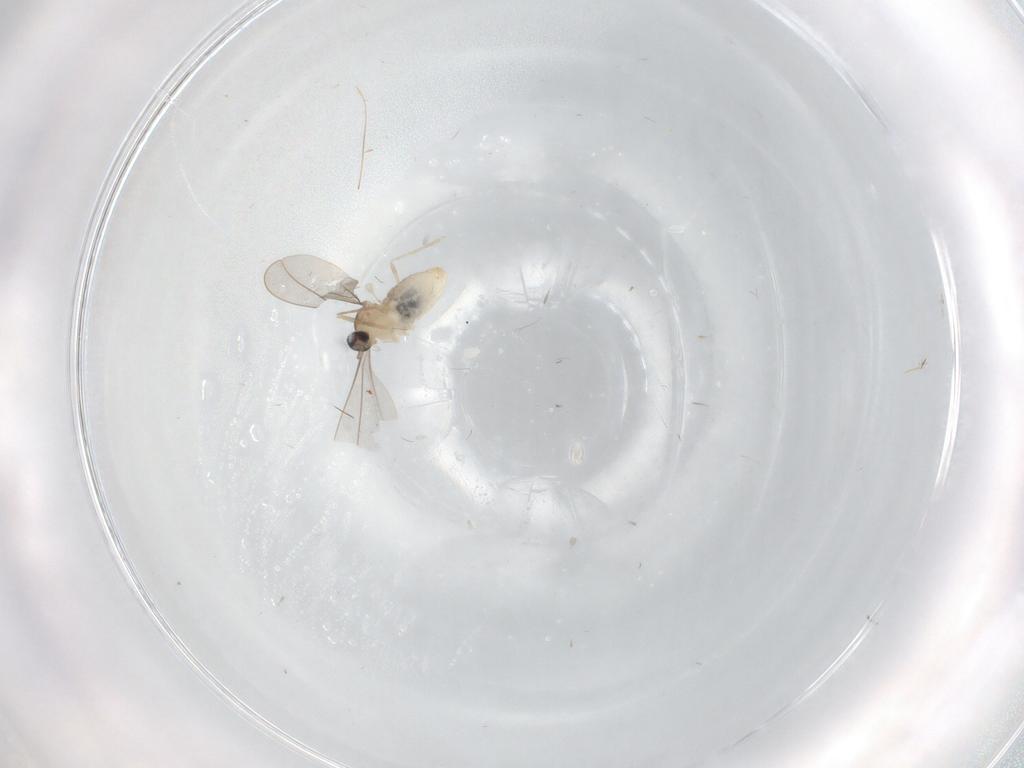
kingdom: Animalia
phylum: Arthropoda
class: Insecta
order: Diptera
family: Cecidomyiidae
